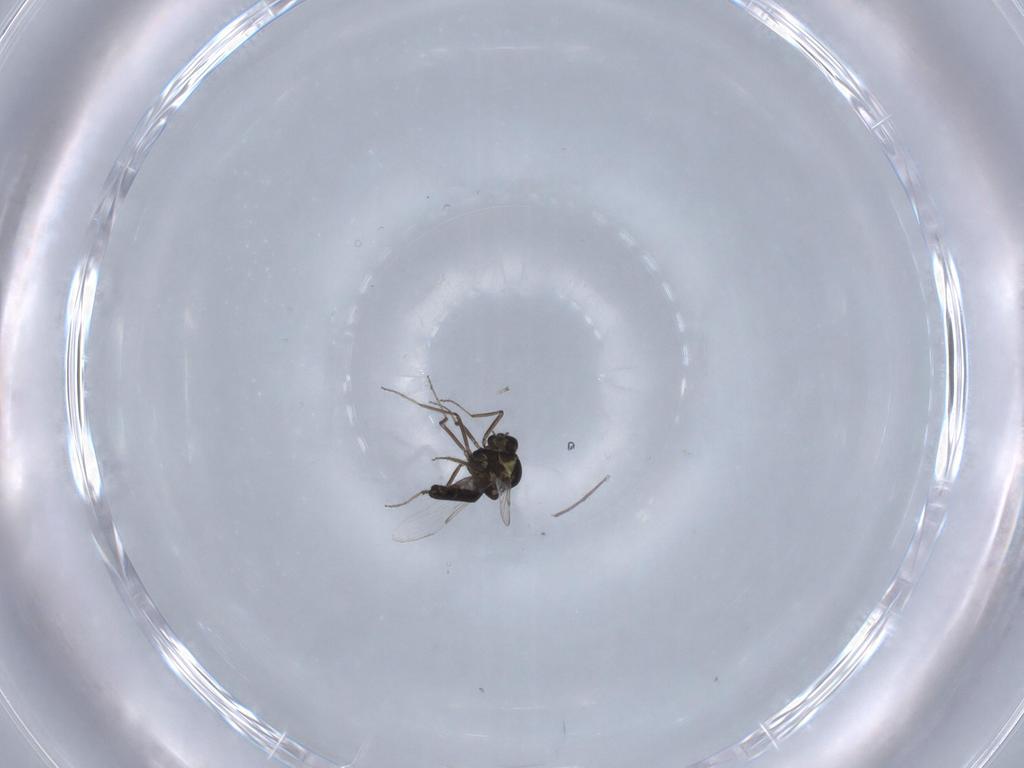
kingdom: Animalia
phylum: Arthropoda
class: Insecta
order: Diptera
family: Ceratopogonidae
